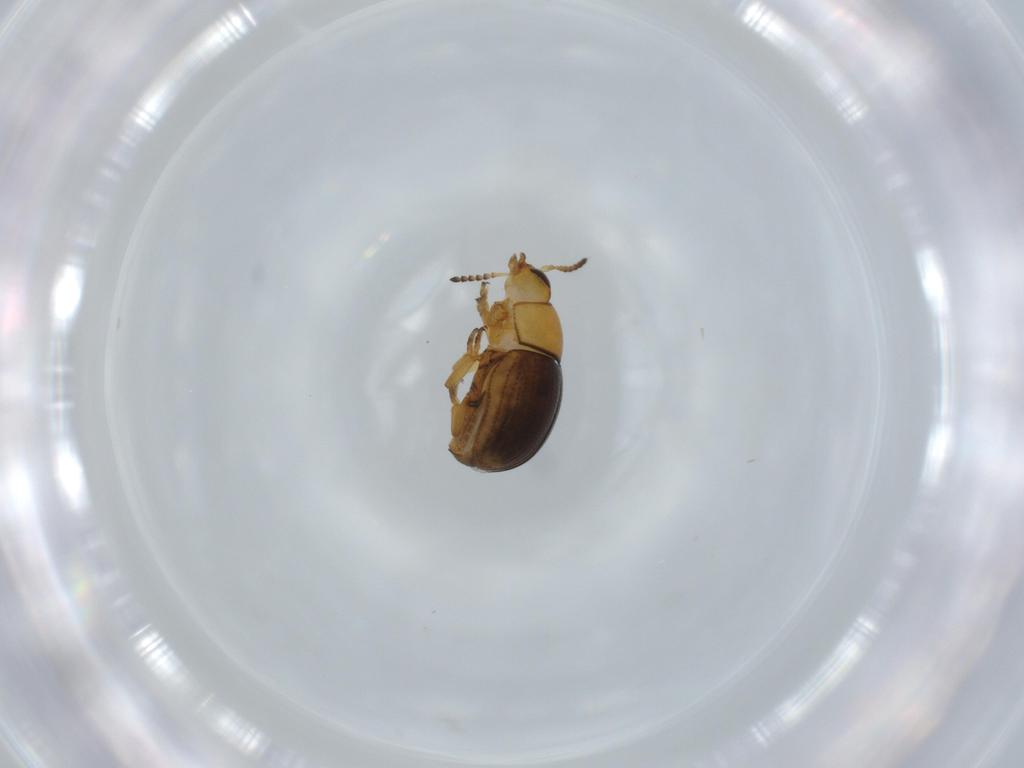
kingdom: Animalia
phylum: Arthropoda
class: Insecta
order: Coleoptera
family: Chrysomelidae
